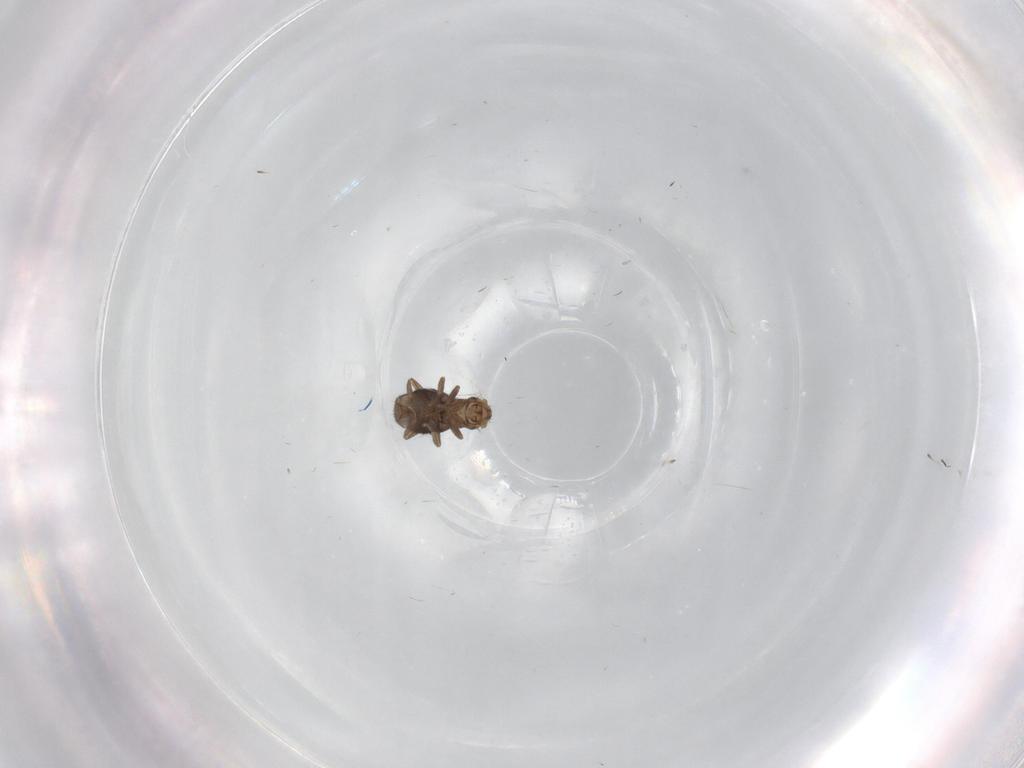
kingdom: Animalia
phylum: Arthropoda
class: Insecta
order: Diptera
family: Phoridae
